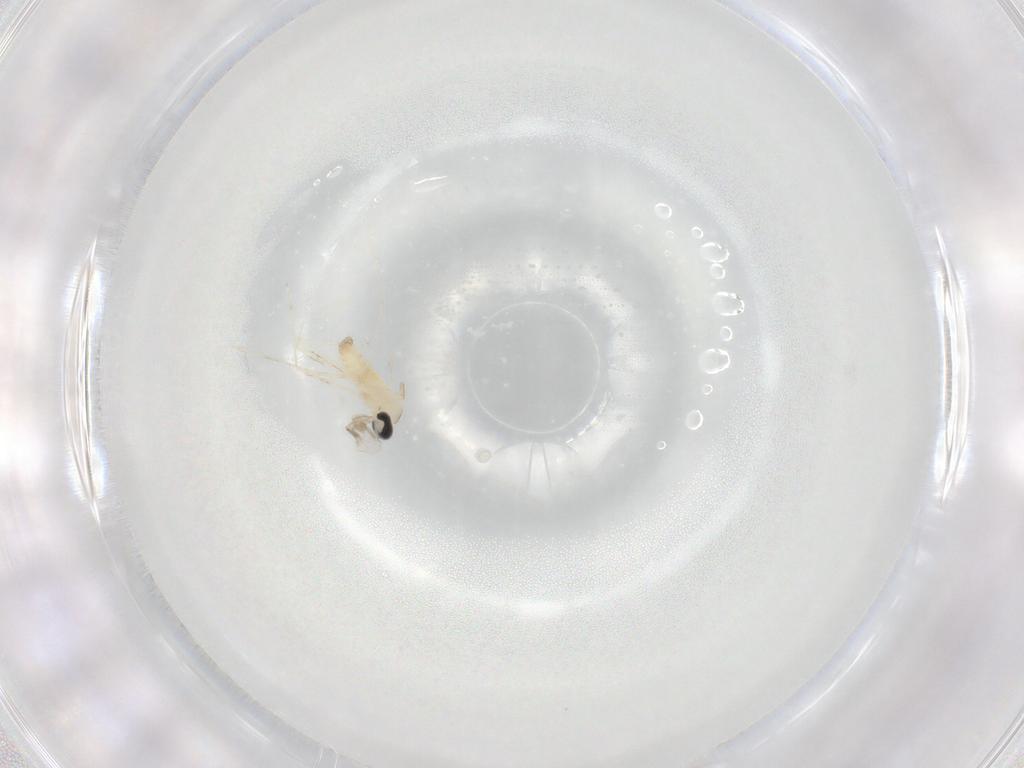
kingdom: Animalia
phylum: Arthropoda
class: Insecta
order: Diptera
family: Cecidomyiidae
